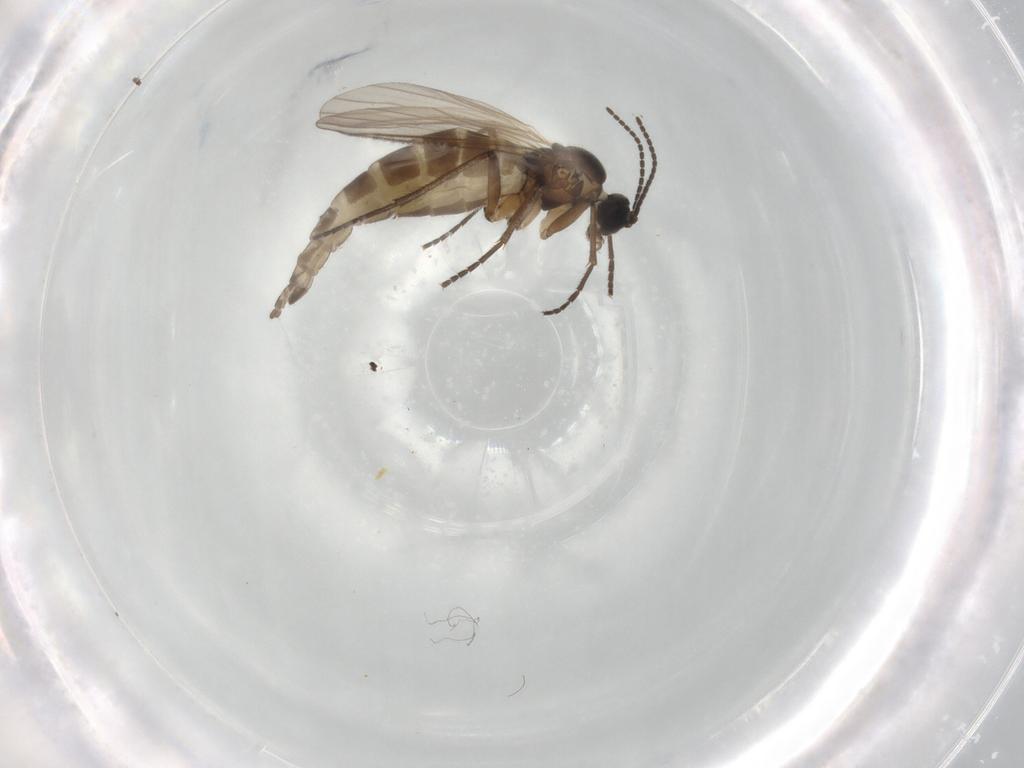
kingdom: Animalia
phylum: Arthropoda
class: Insecta
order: Diptera
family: Sciaridae
